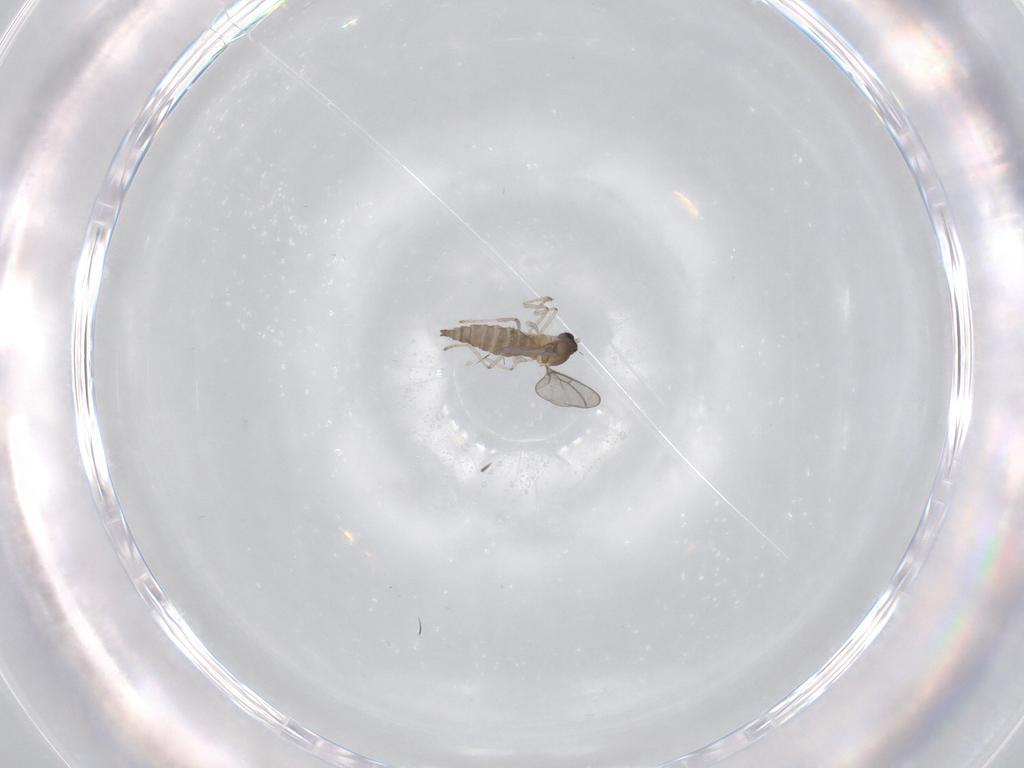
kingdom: Animalia
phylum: Arthropoda
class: Insecta
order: Diptera
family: Cecidomyiidae
